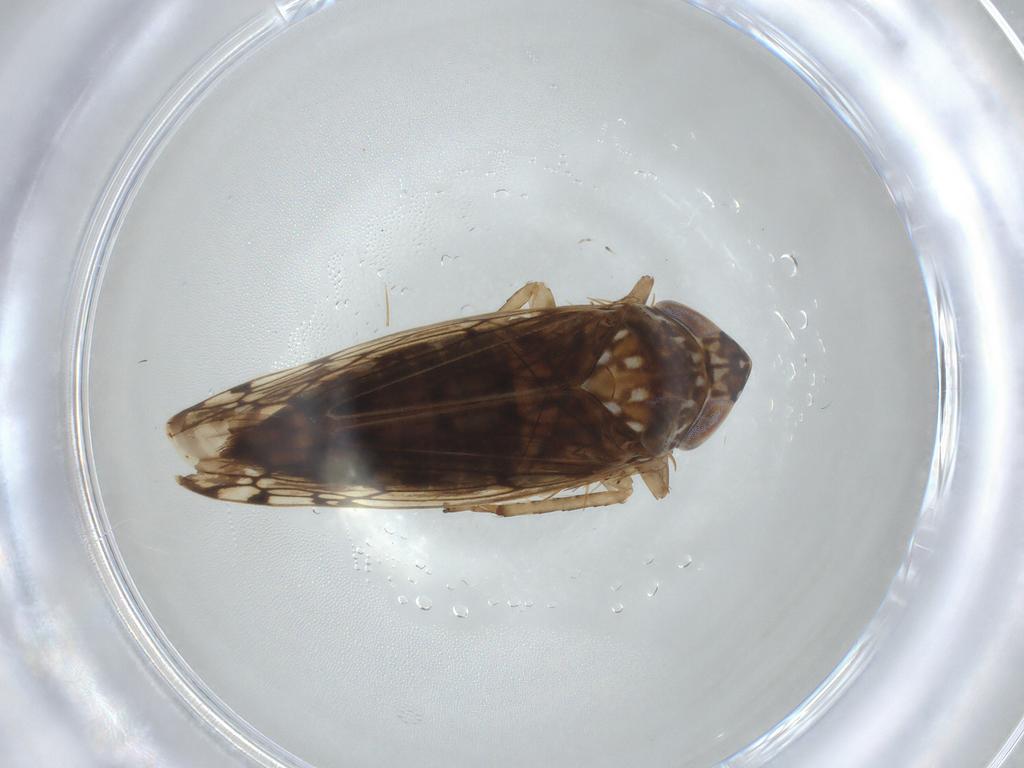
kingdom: Animalia
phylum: Arthropoda
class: Insecta
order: Hemiptera
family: Cicadellidae
